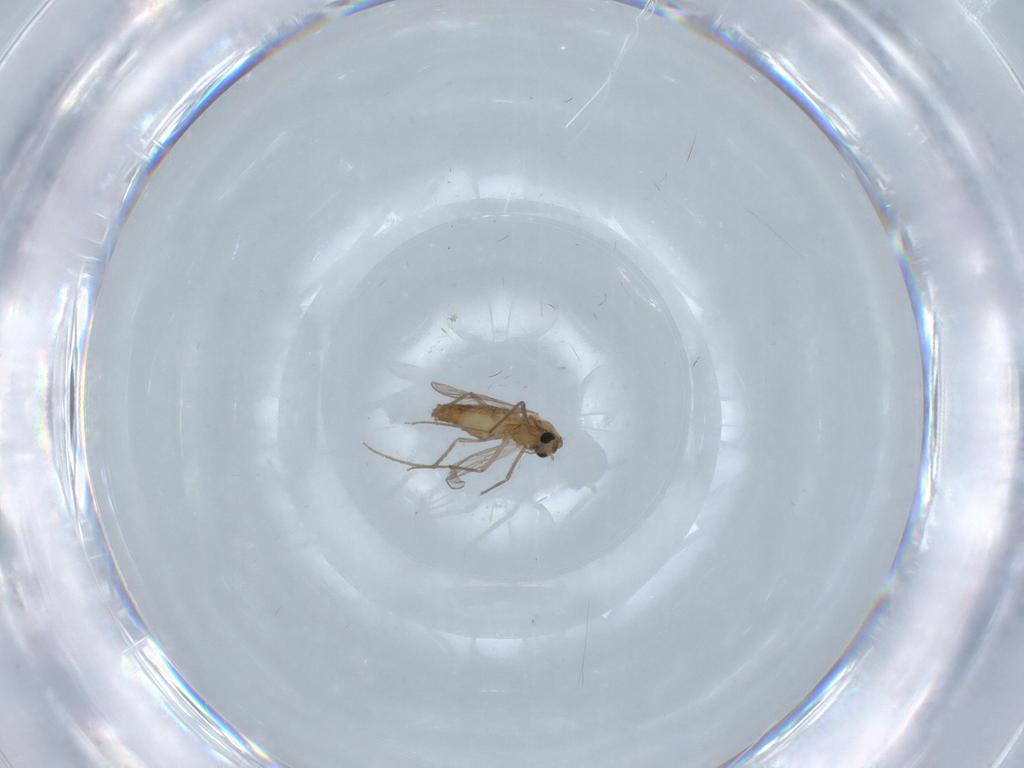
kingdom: Animalia
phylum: Arthropoda
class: Insecta
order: Diptera
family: Chironomidae
